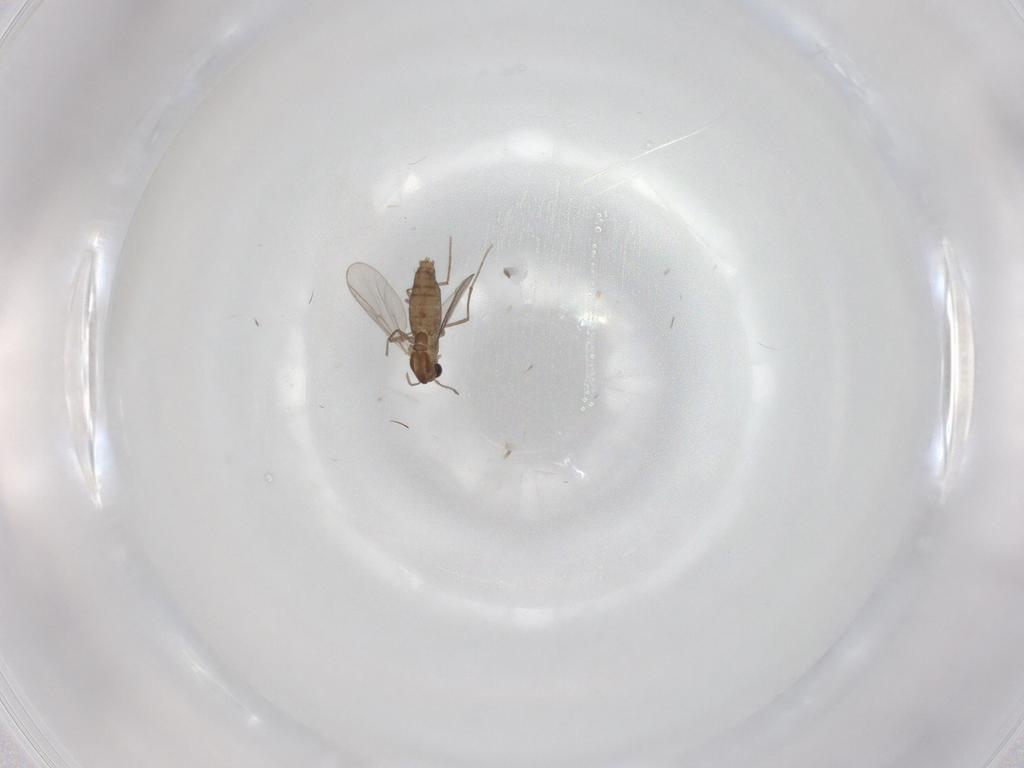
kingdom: Animalia
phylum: Arthropoda
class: Insecta
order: Diptera
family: Chironomidae
